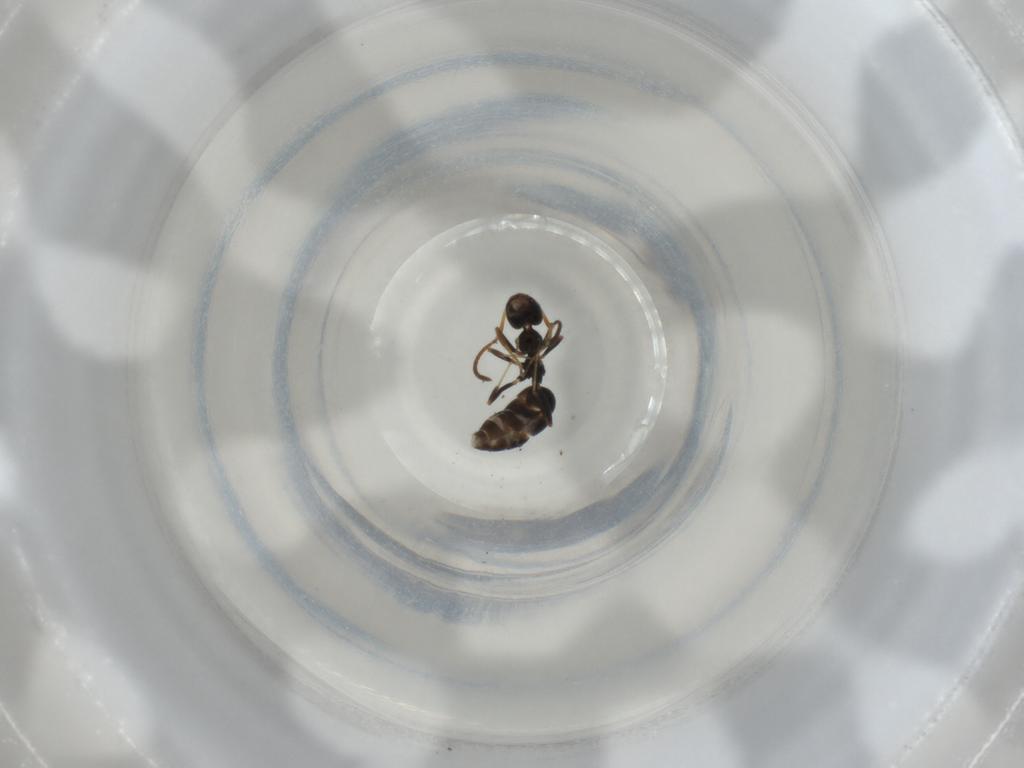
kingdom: Animalia
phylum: Arthropoda
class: Insecta
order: Hymenoptera
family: Formicidae
